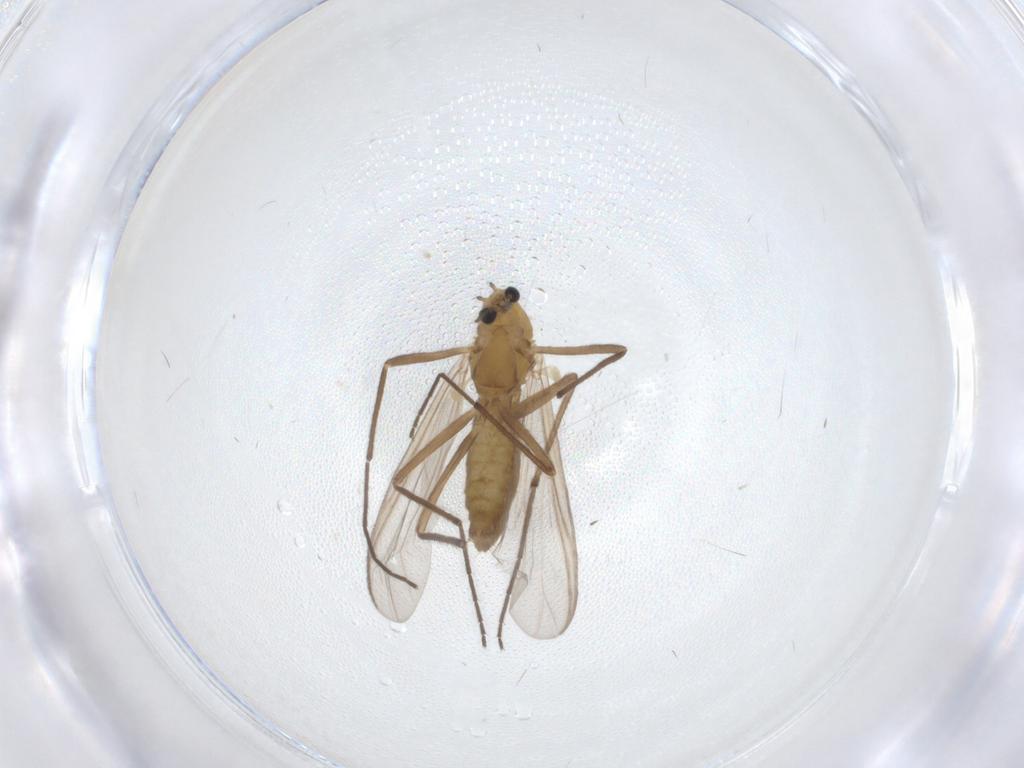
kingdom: Animalia
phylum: Arthropoda
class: Insecta
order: Diptera
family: Chironomidae
